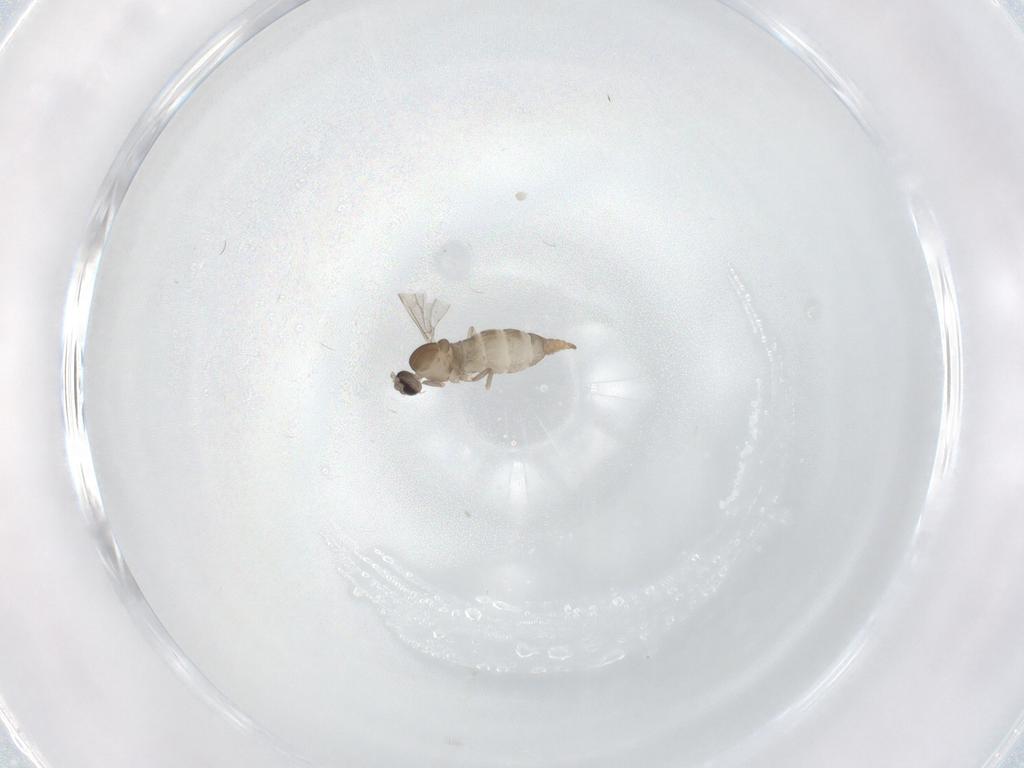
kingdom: Animalia
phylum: Arthropoda
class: Insecta
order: Diptera
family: Cecidomyiidae
